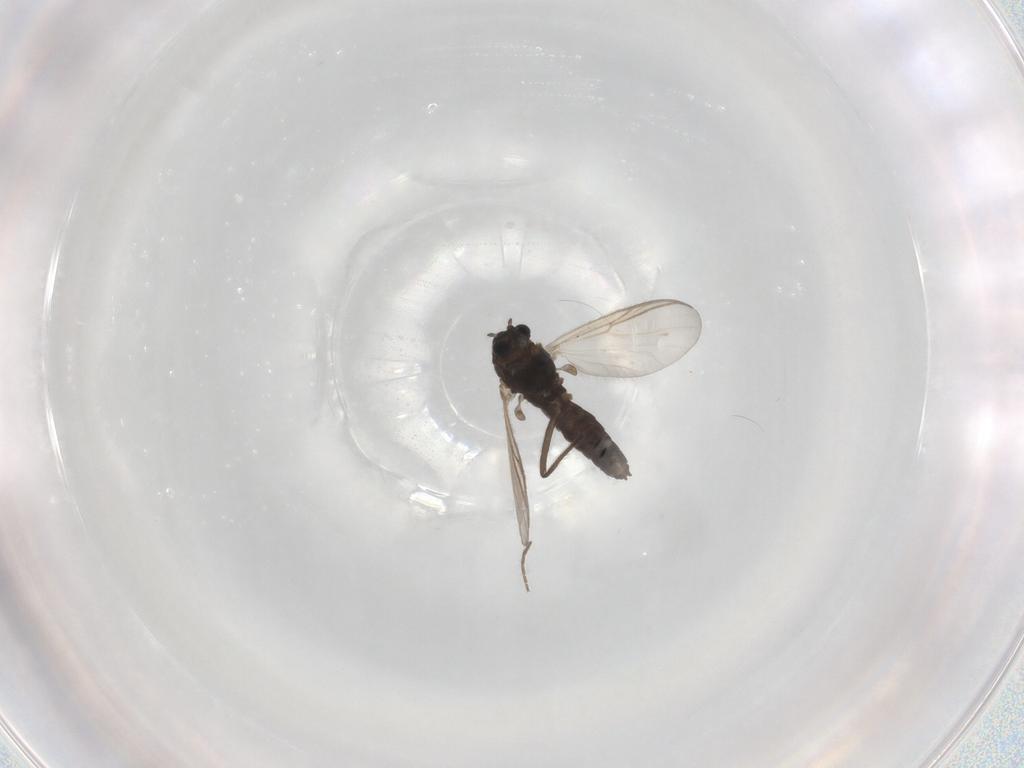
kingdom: Animalia
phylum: Arthropoda
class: Insecta
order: Diptera
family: Chironomidae
